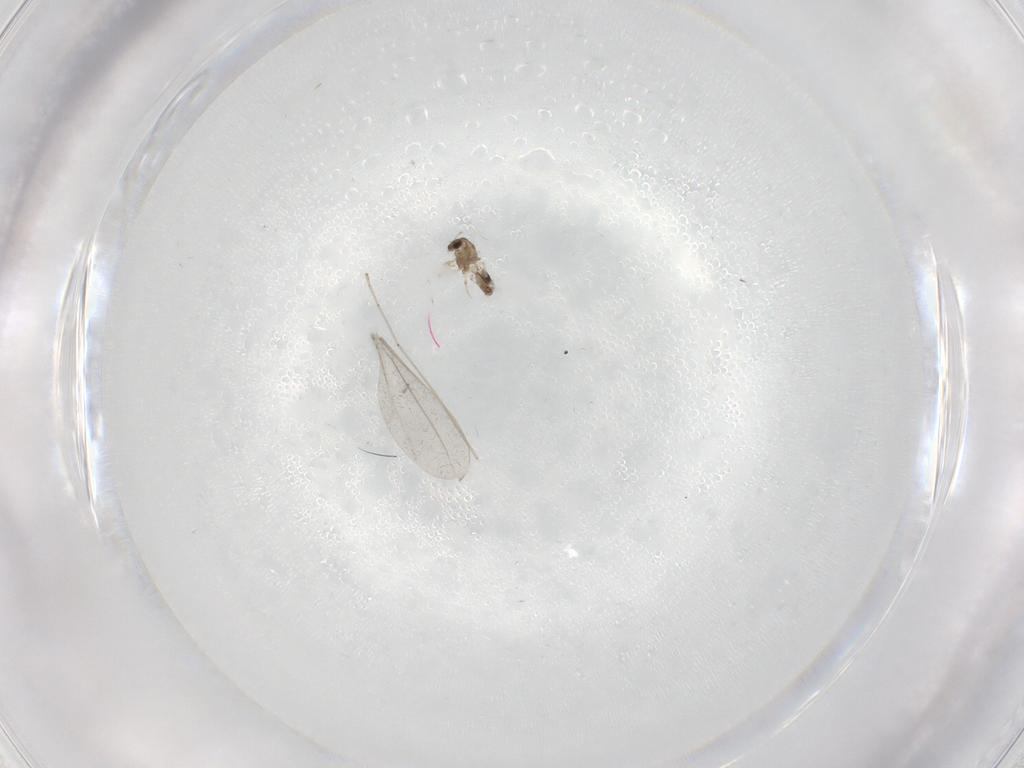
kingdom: Animalia
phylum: Arthropoda
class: Insecta
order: Diptera
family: Chironomidae
